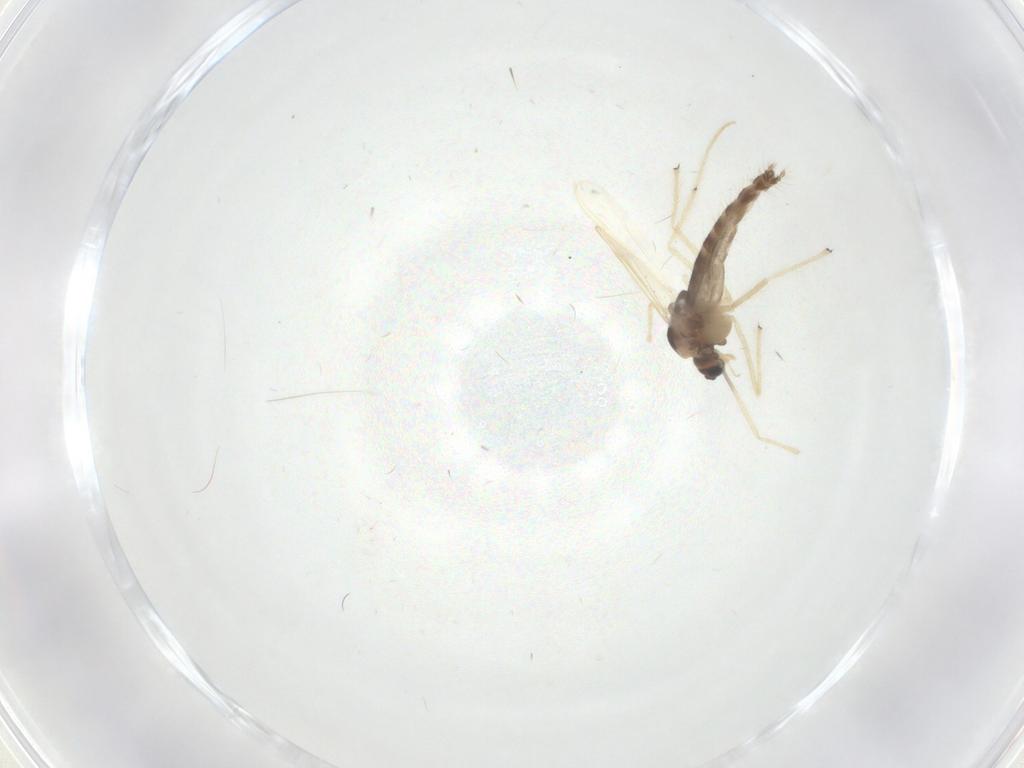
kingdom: Animalia
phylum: Arthropoda
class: Insecta
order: Diptera
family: Chironomidae
